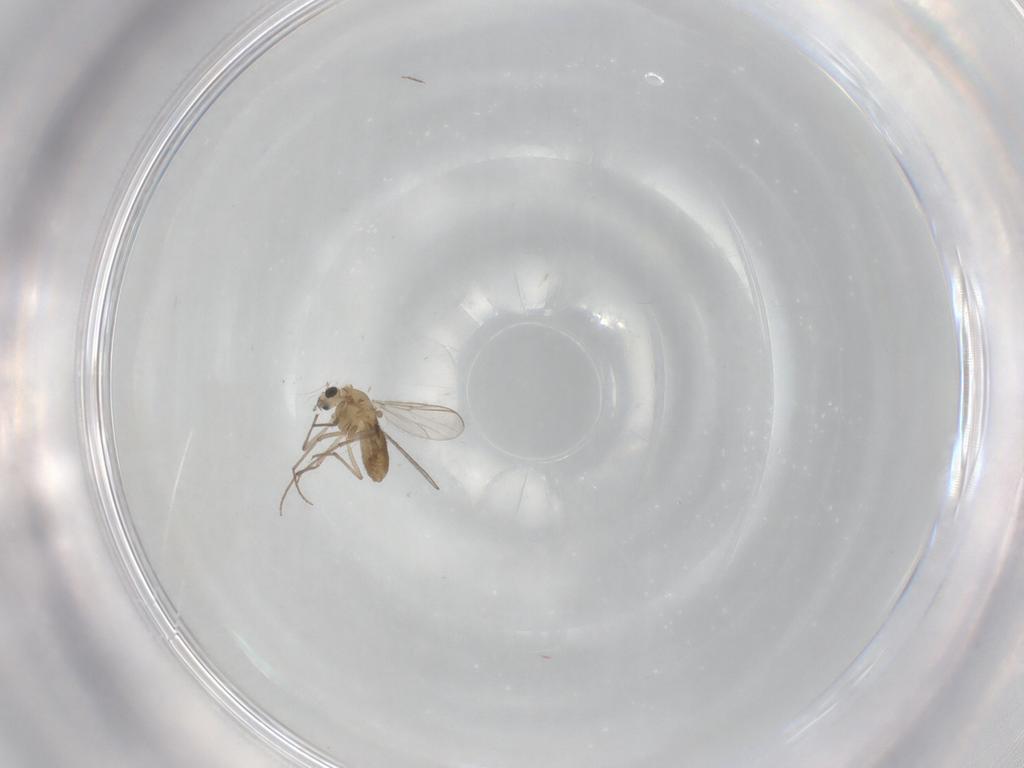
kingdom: Animalia
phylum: Arthropoda
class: Insecta
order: Diptera
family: Chironomidae
